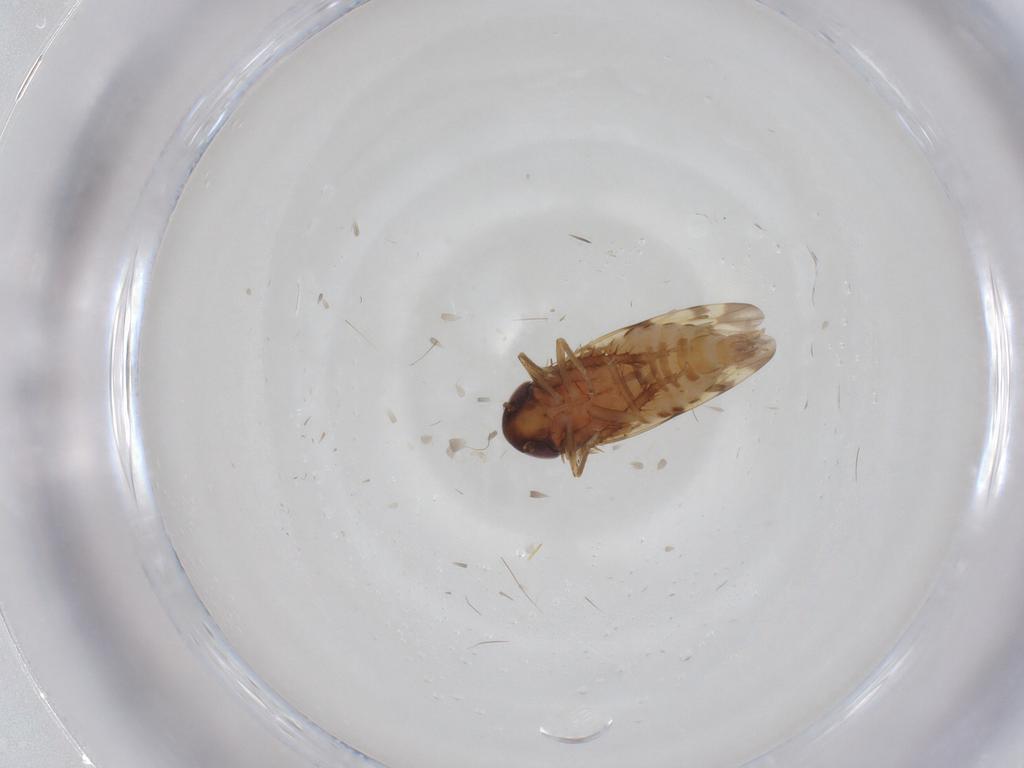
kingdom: Animalia
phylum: Arthropoda
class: Insecta
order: Hemiptera
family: Cicadellidae
